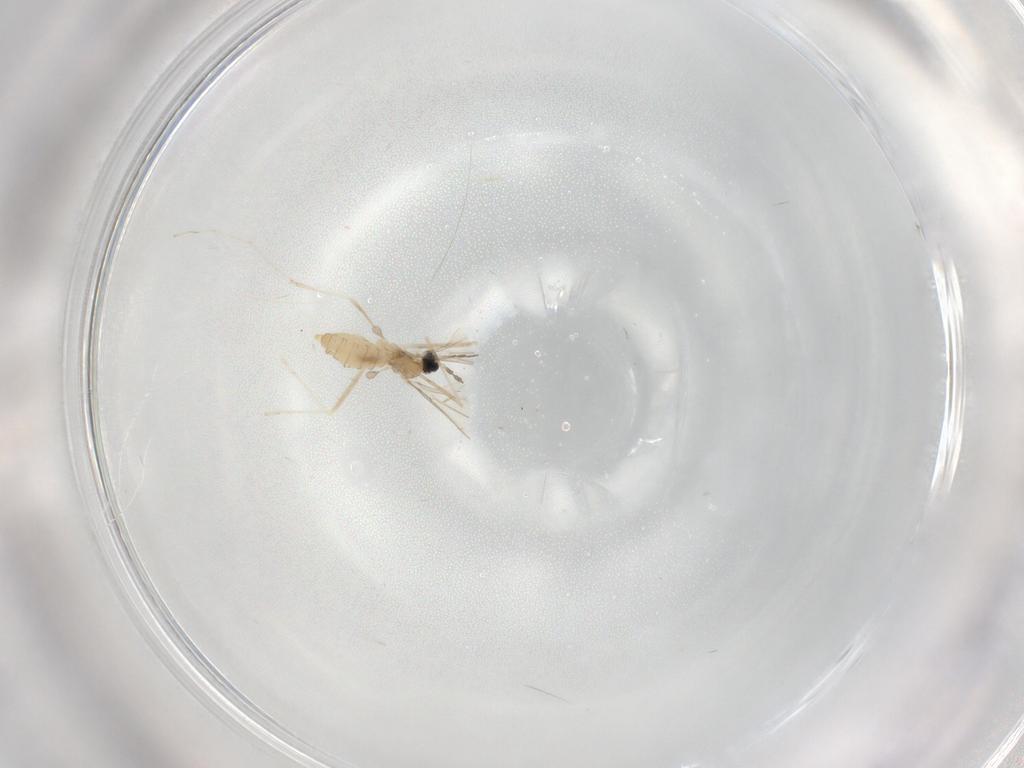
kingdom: Animalia
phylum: Arthropoda
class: Insecta
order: Diptera
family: Cecidomyiidae
